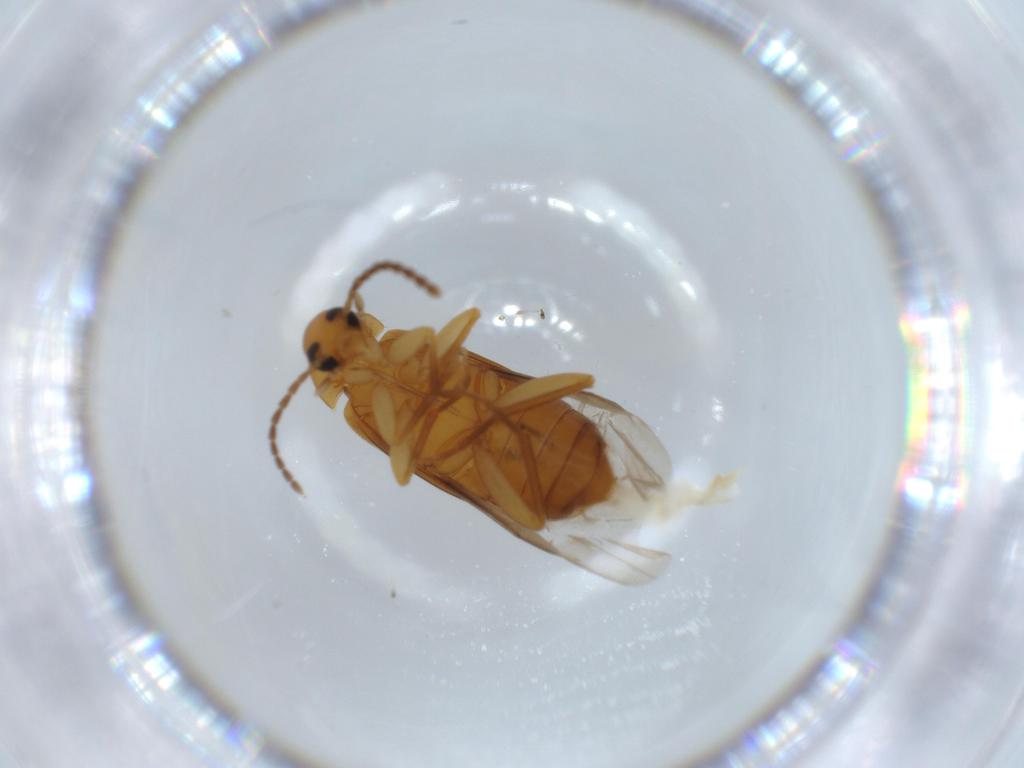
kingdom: Animalia
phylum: Arthropoda
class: Insecta
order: Coleoptera
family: Scraptiidae
